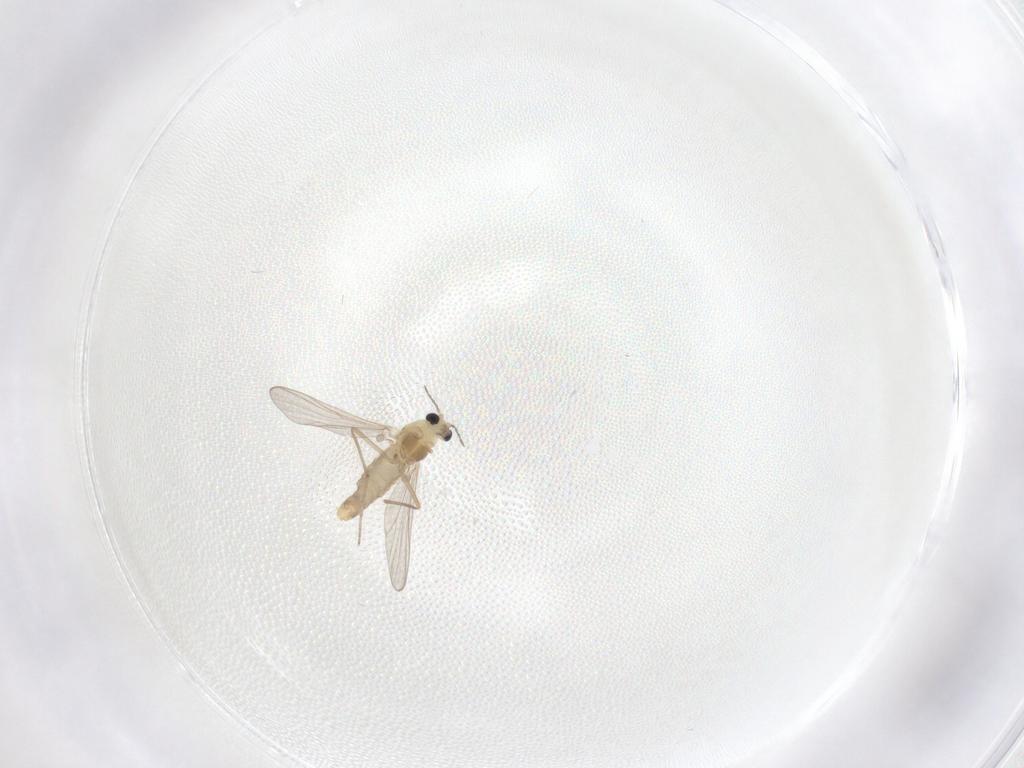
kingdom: Animalia
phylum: Arthropoda
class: Insecta
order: Diptera
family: Chironomidae
